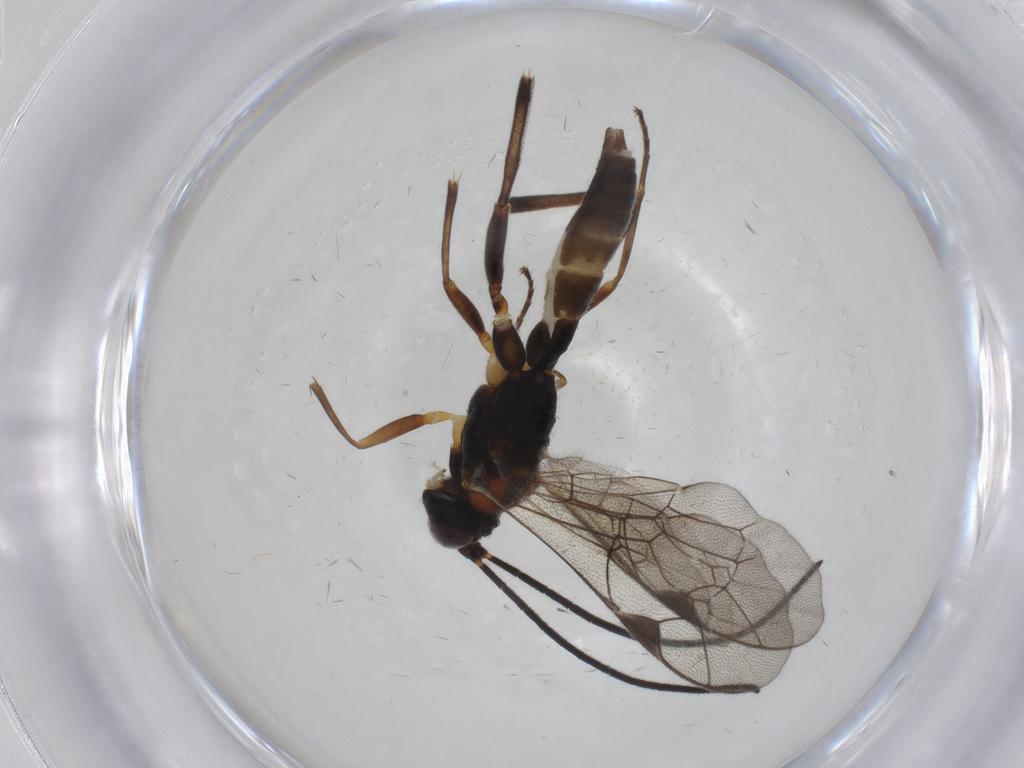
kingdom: Animalia
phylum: Arthropoda
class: Insecta
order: Hymenoptera
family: Ichneumonidae
